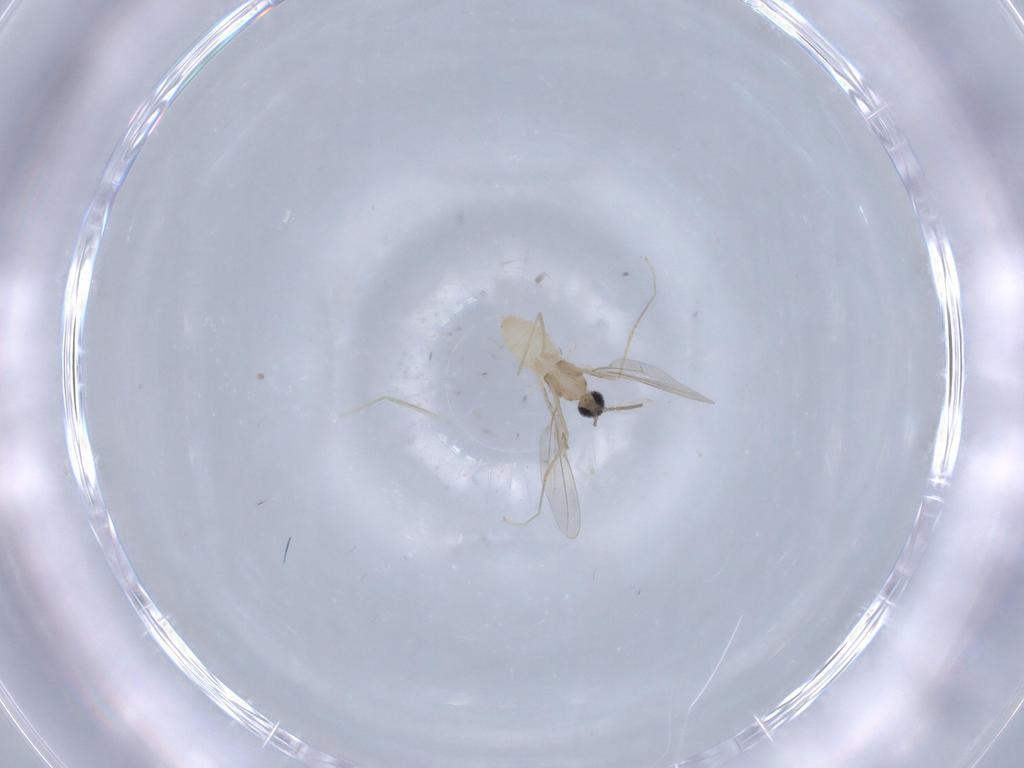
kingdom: Animalia
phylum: Arthropoda
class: Insecta
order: Diptera
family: Cecidomyiidae
